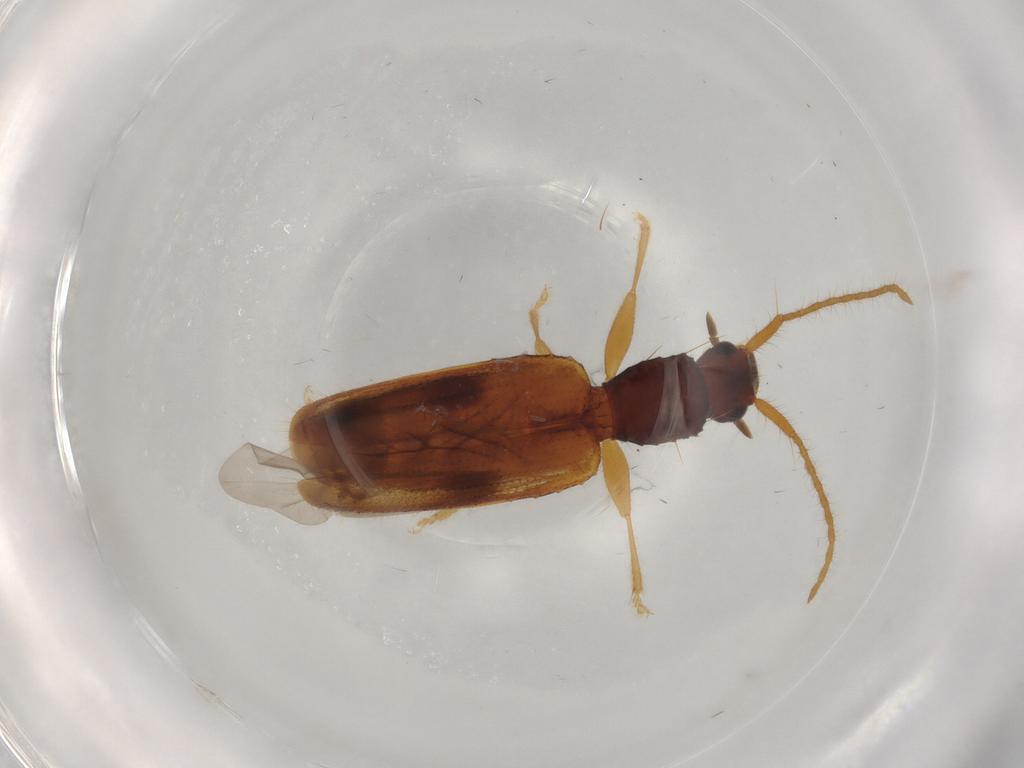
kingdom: Animalia
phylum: Arthropoda
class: Insecta
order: Coleoptera
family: Silvanidae
